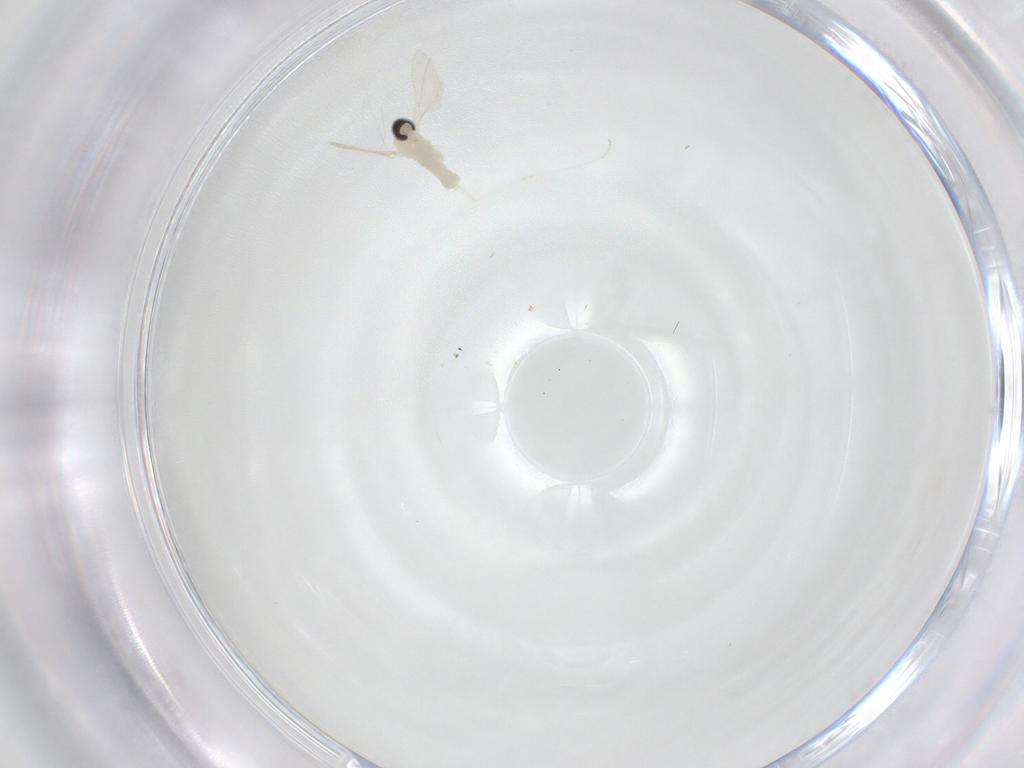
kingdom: Animalia
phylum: Arthropoda
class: Insecta
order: Diptera
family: Cecidomyiidae
